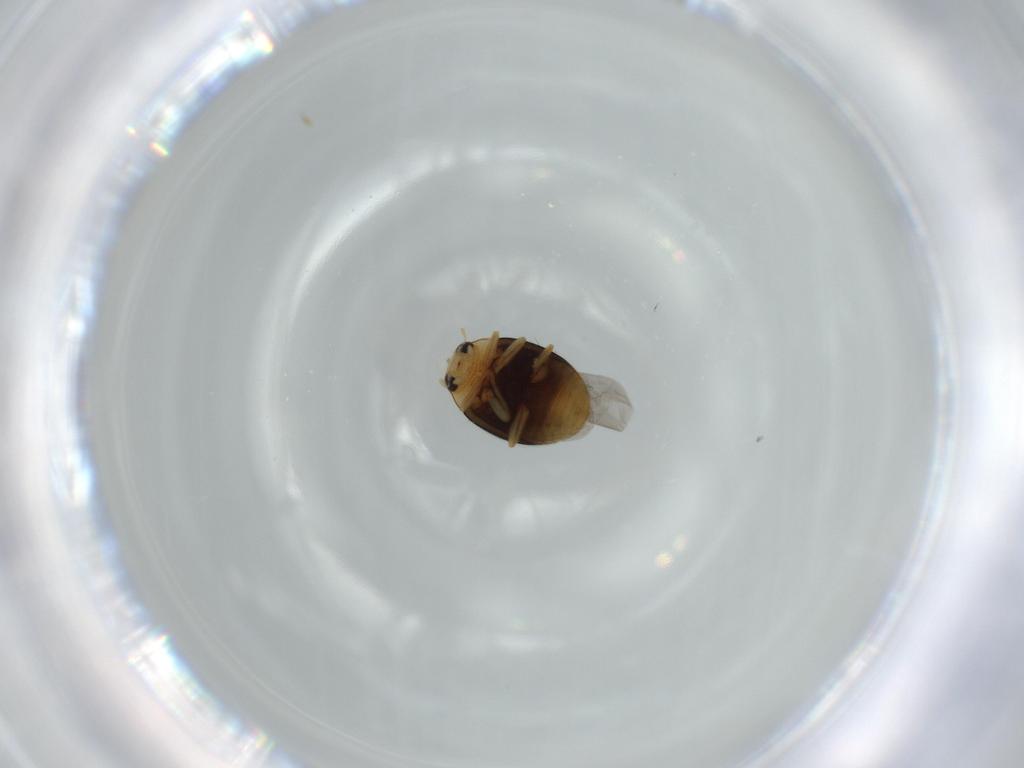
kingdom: Animalia
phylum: Arthropoda
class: Insecta
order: Coleoptera
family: Coccinellidae
